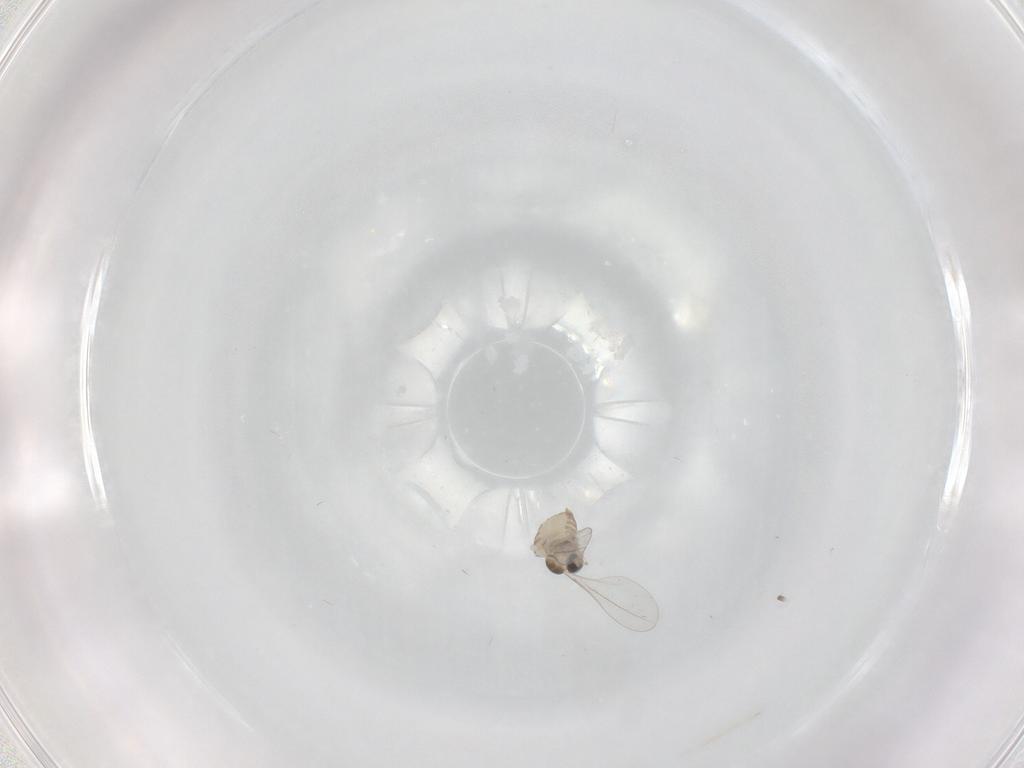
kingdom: Animalia
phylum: Arthropoda
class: Insecta
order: Diptera
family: Cecidomyiidae
